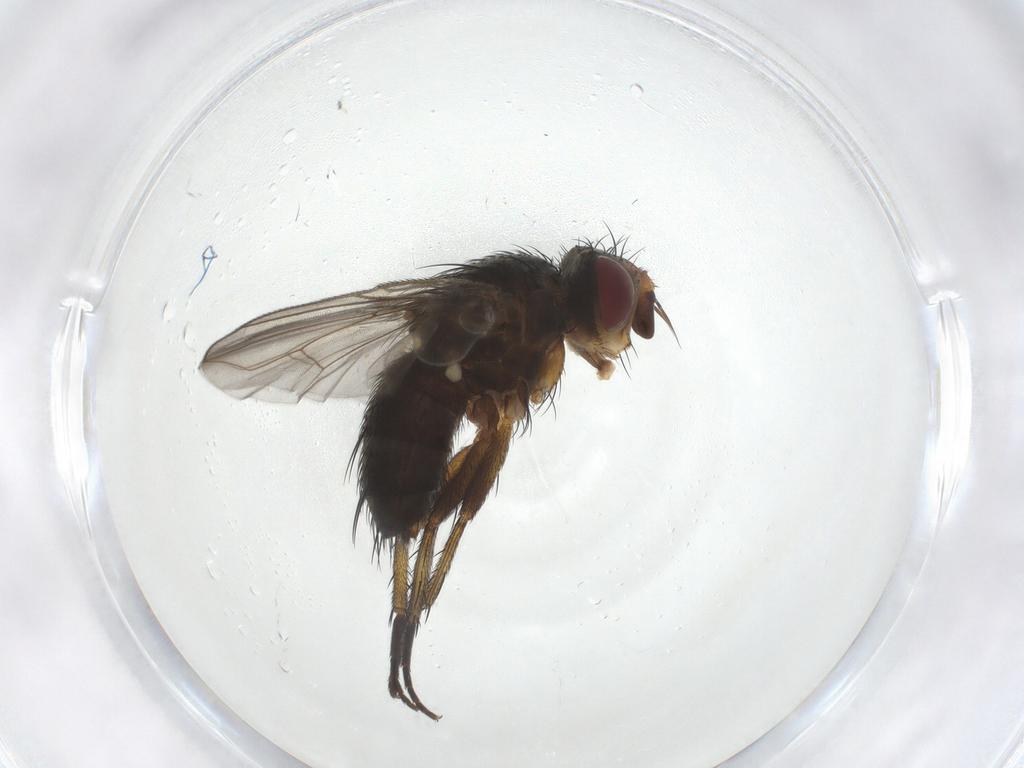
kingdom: Animalia
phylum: Arthropoda
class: Insecta
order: Diptera
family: Tachinidae
